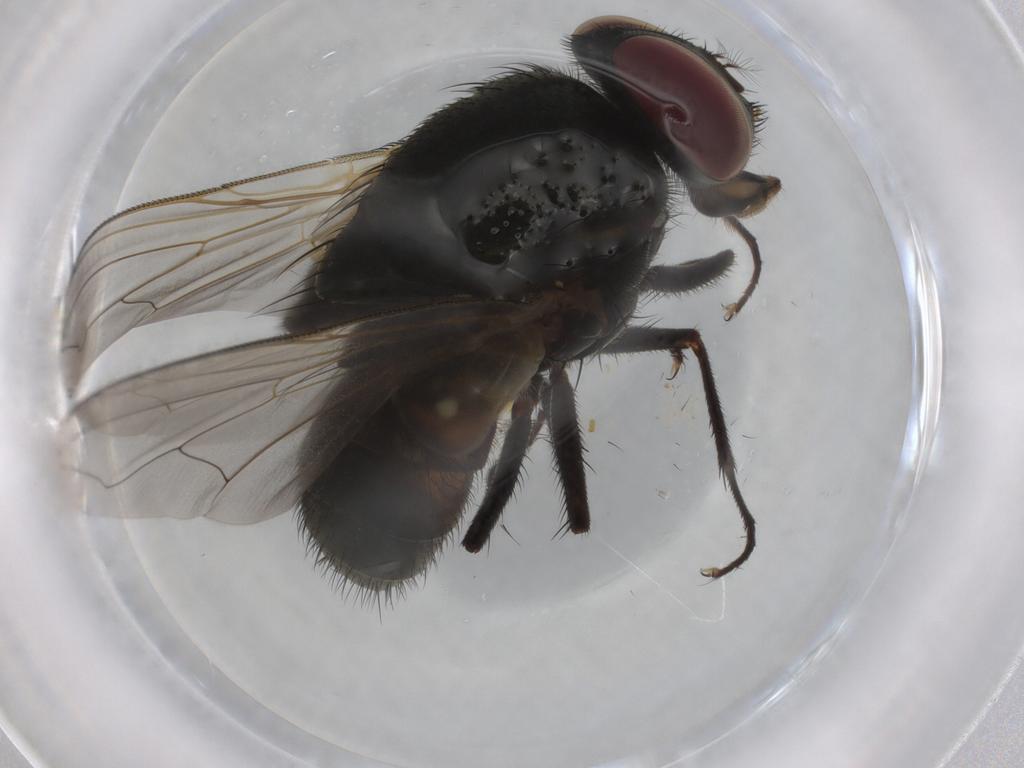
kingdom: Animalia
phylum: Arthropoda
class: Insecta
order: Diptera
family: Muscidae
